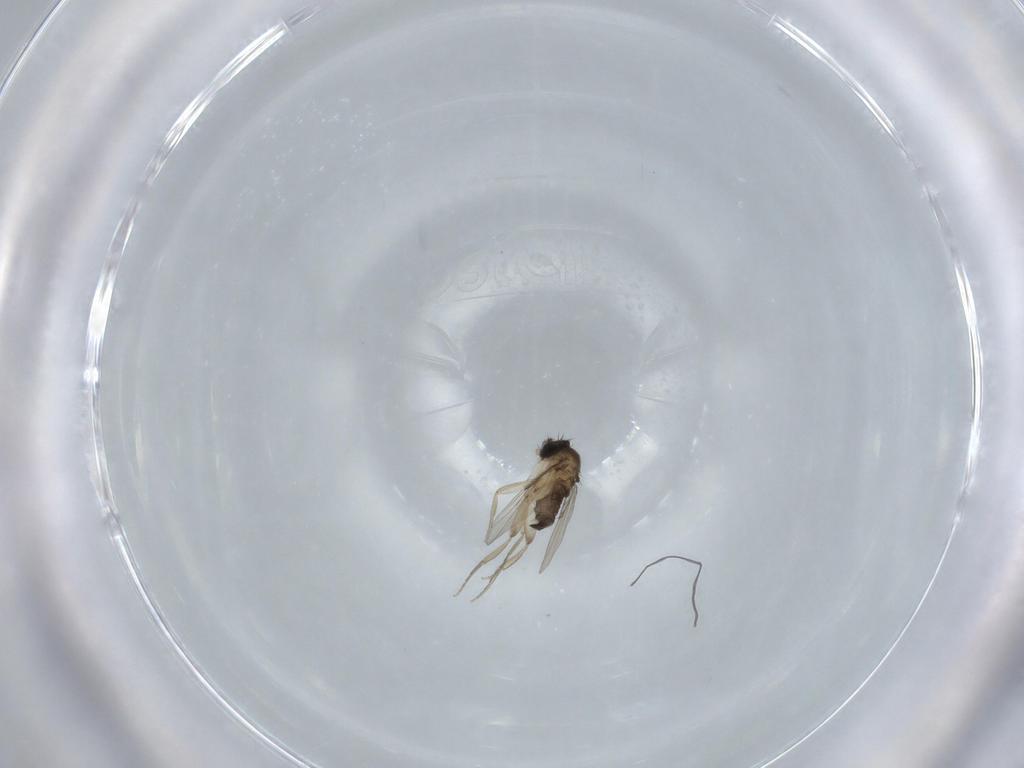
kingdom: Animalia
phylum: Arthropoda
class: Insecta
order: Diptera
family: Phoridae
